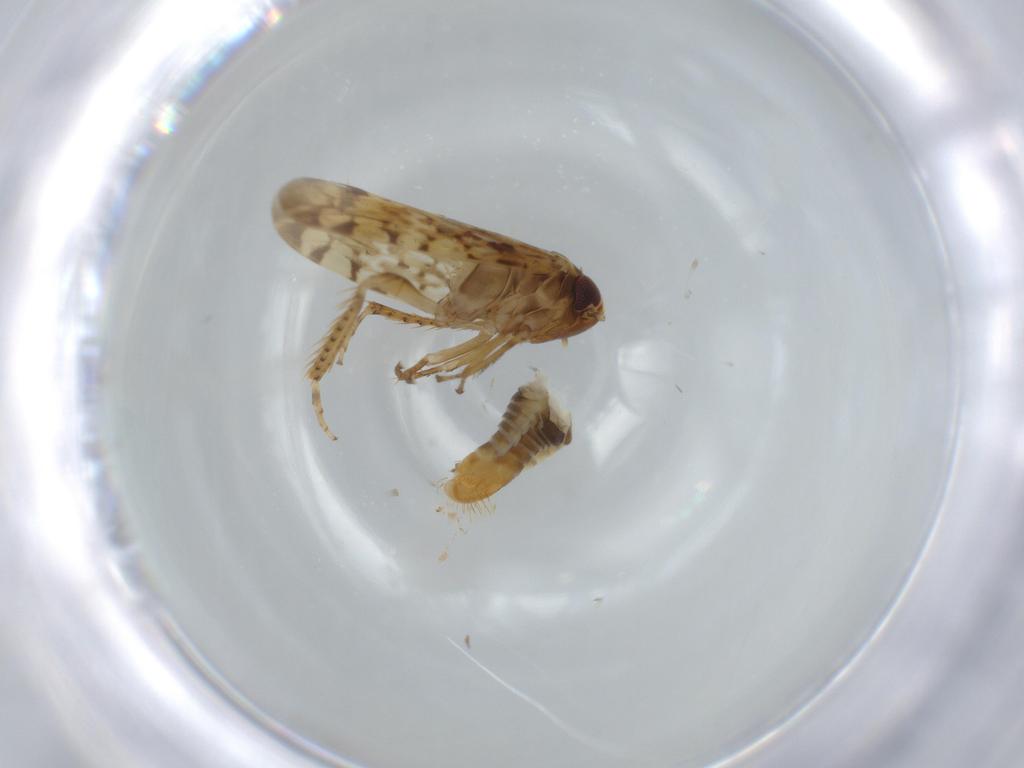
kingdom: Animalia
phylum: Arthropoda
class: Insecta
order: Hemiptera
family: Cicadellidae
